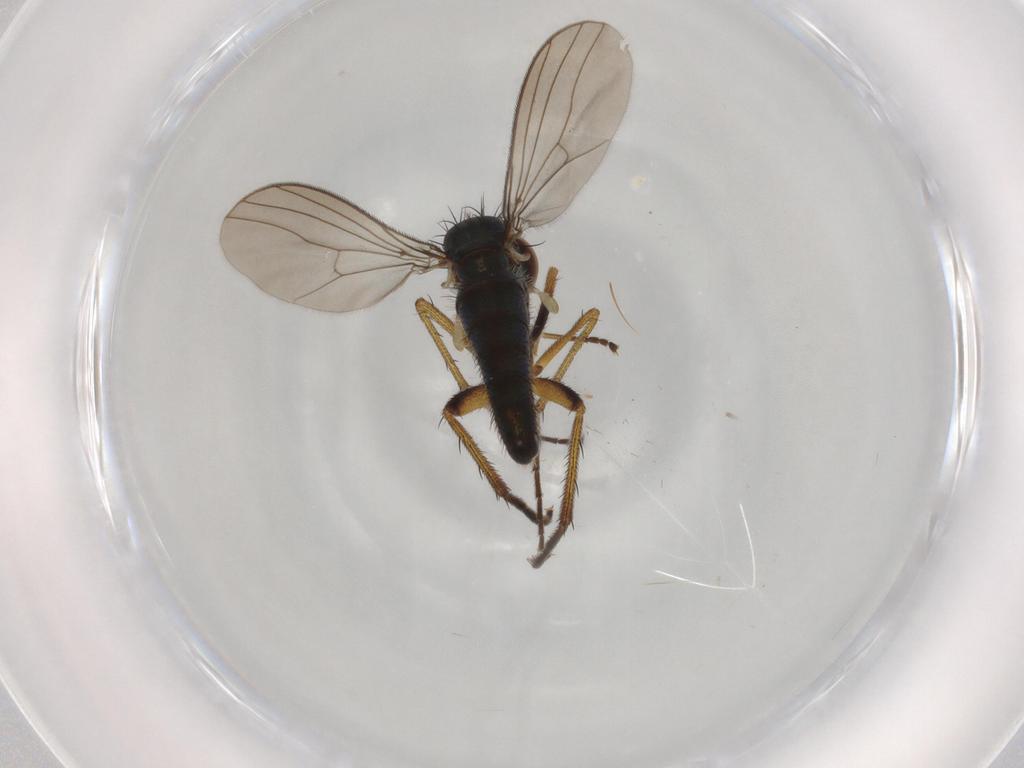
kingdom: Animalia
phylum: Arthropoda
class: Insecta
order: Diptera
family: Dolichopodidae
